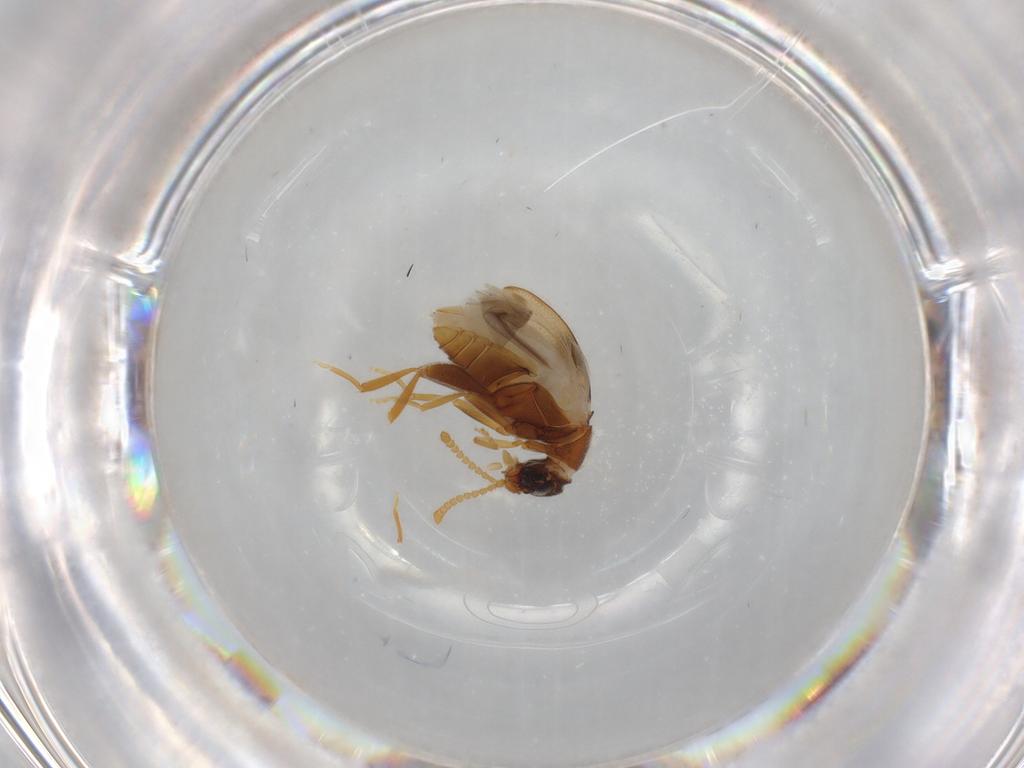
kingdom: Animalia
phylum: Arthropoda
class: Insecta
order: Coleoptera
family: Aderidae
